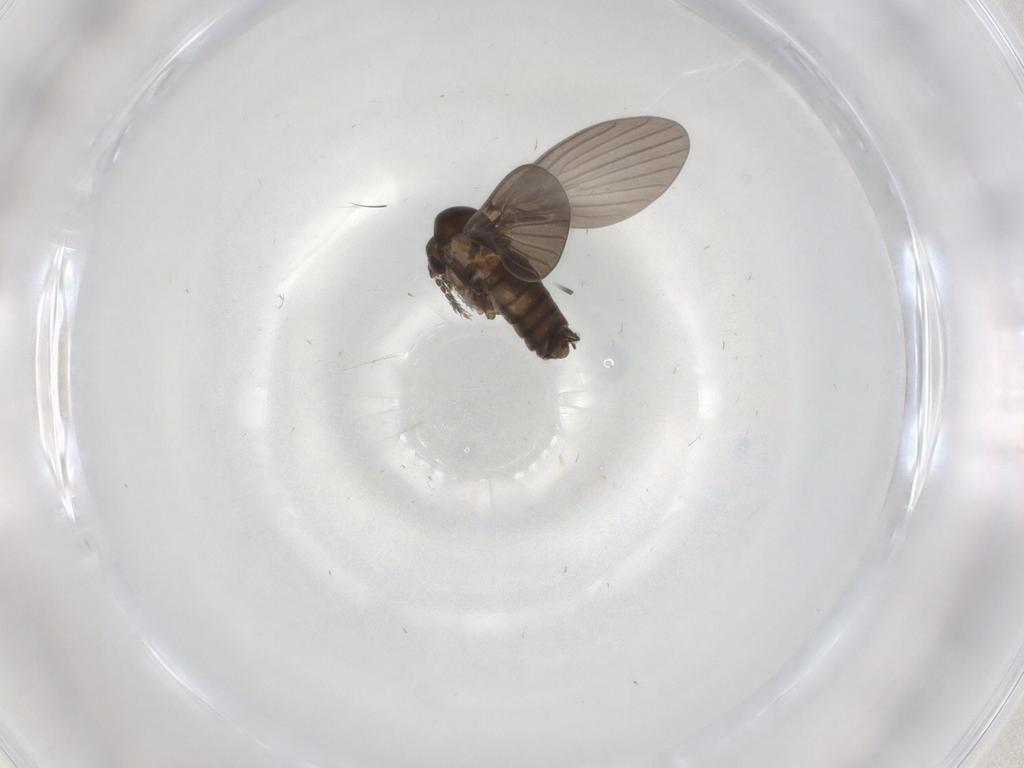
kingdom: Animalia
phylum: Arthropoda
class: Insecta
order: Diptera
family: Psychodidae
